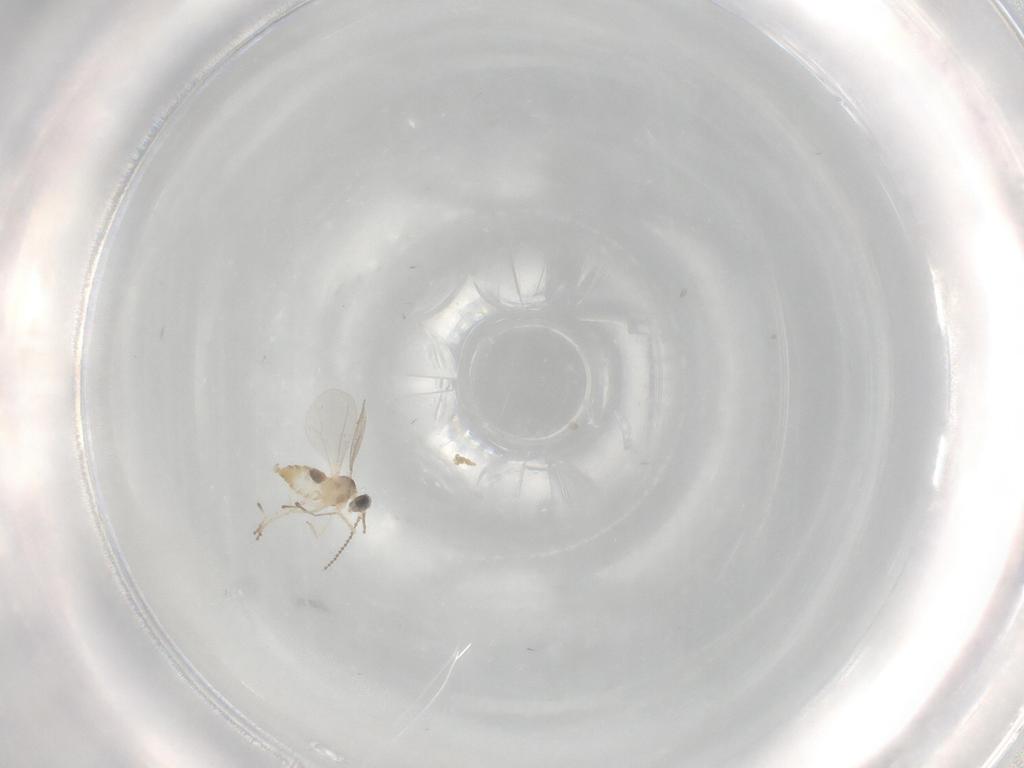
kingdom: Animalia
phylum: Arthropoda
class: Insecta
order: Diptera
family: Cecidomyiidae
